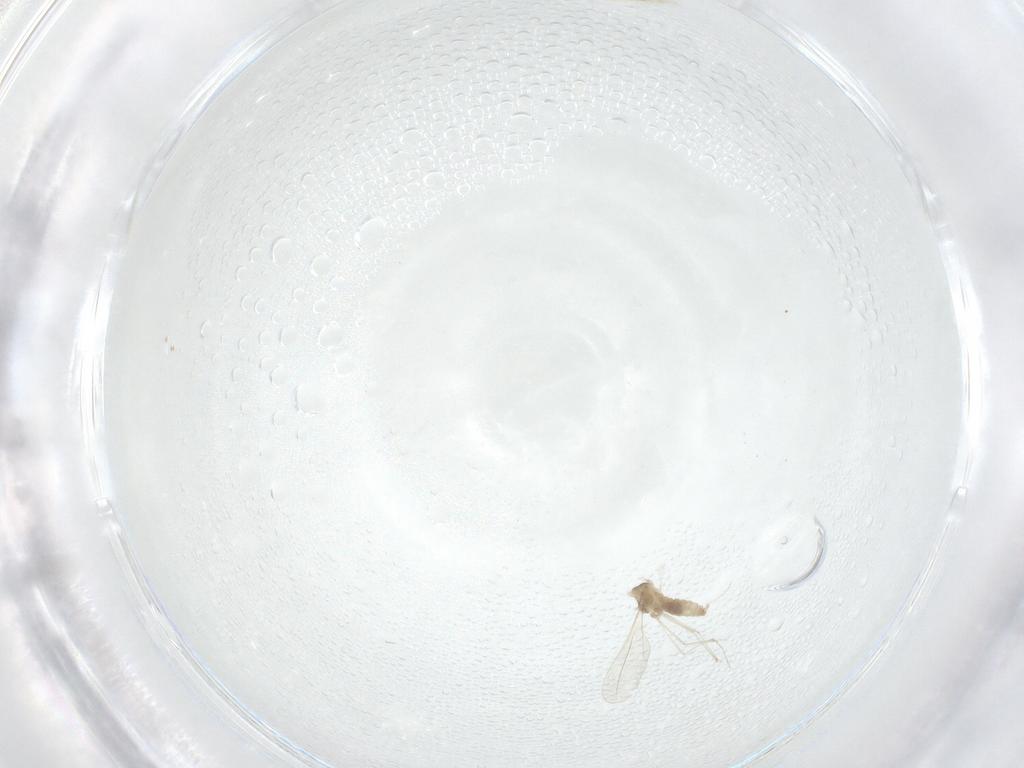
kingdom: Animalia
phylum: Arthropoda
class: Insecta
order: Diptera
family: Cecidomyiidae
